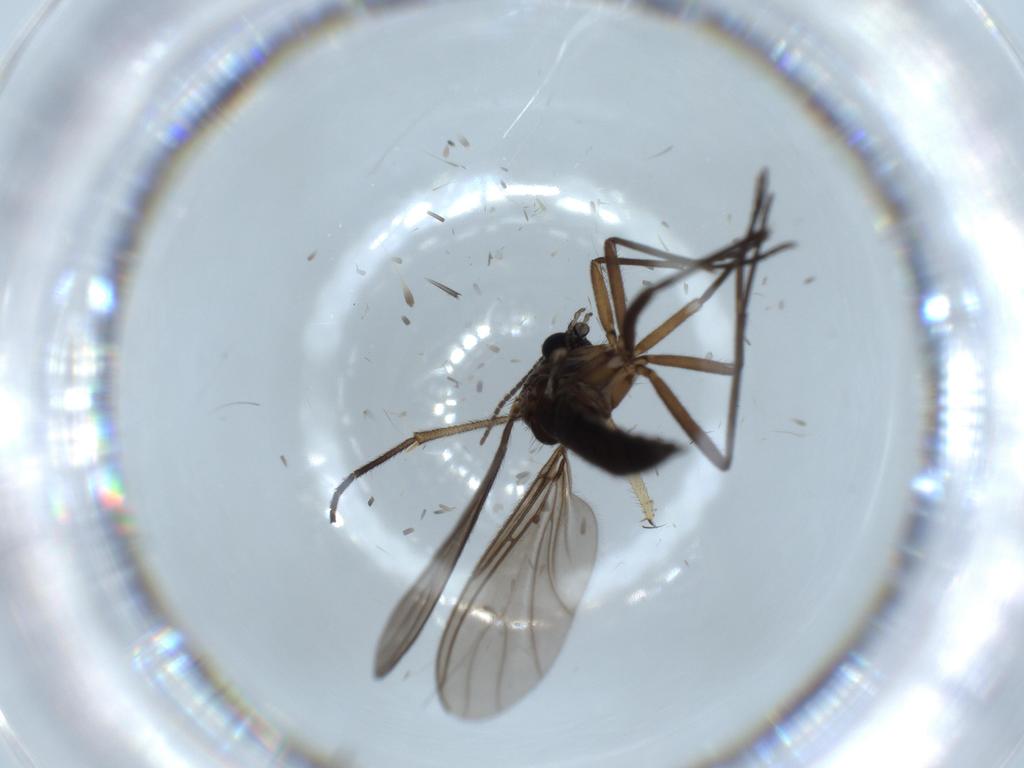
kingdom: Animalia
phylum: Arthropoda
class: Insecta
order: Diptera
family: Sciaridae
